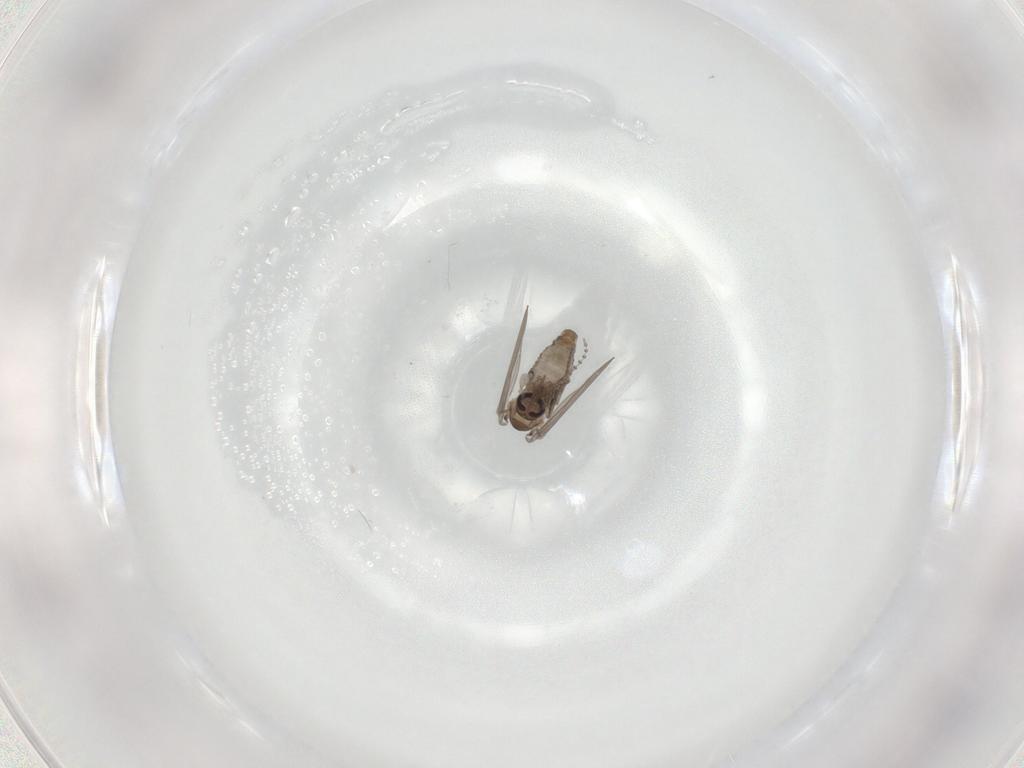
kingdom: Animalia
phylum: Arthropoda
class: Insecta
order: Diptera
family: Psychodidae
